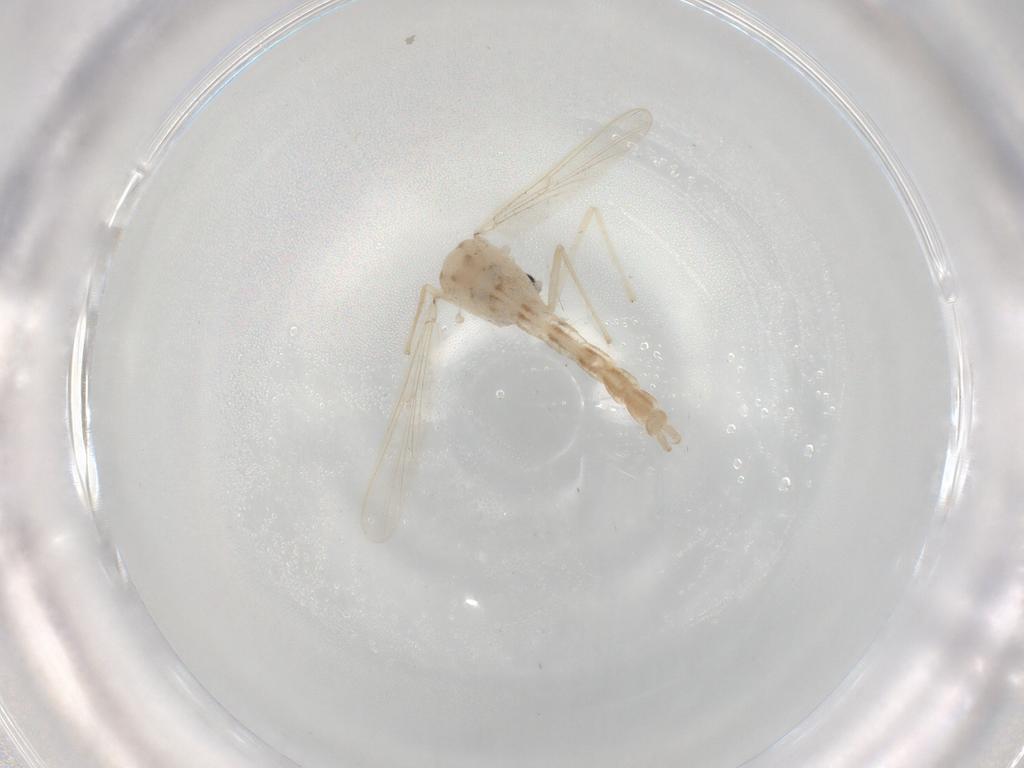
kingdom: Animalia
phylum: Arthropoda
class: Insecta
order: Diptera
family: Chironomidae
